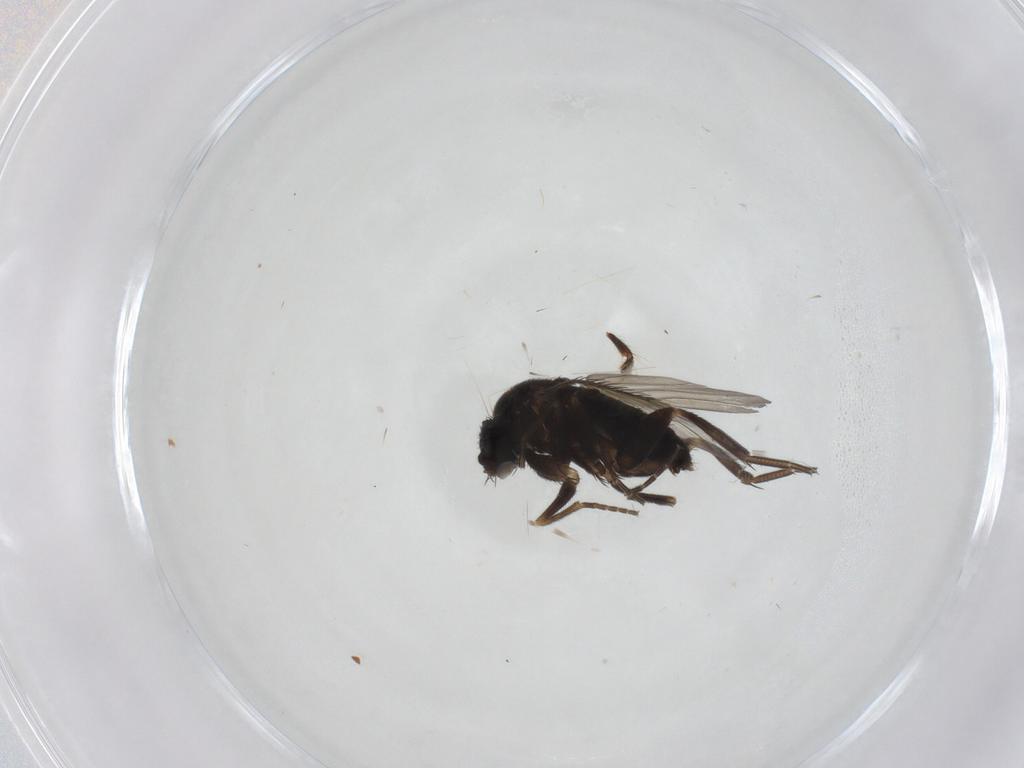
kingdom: Animalia
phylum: Arthropoda
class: Insecta
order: Diptera
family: Phoridae
